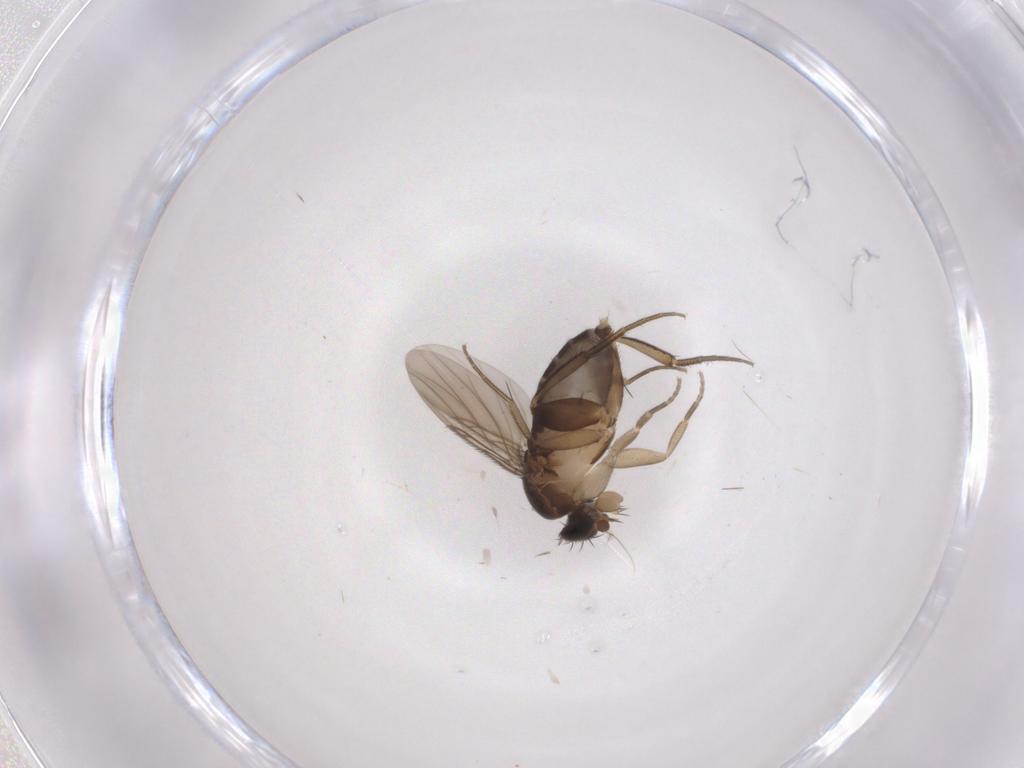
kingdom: Animalia
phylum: Arthropoda
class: Insecta
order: Diptera
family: Phoridae
